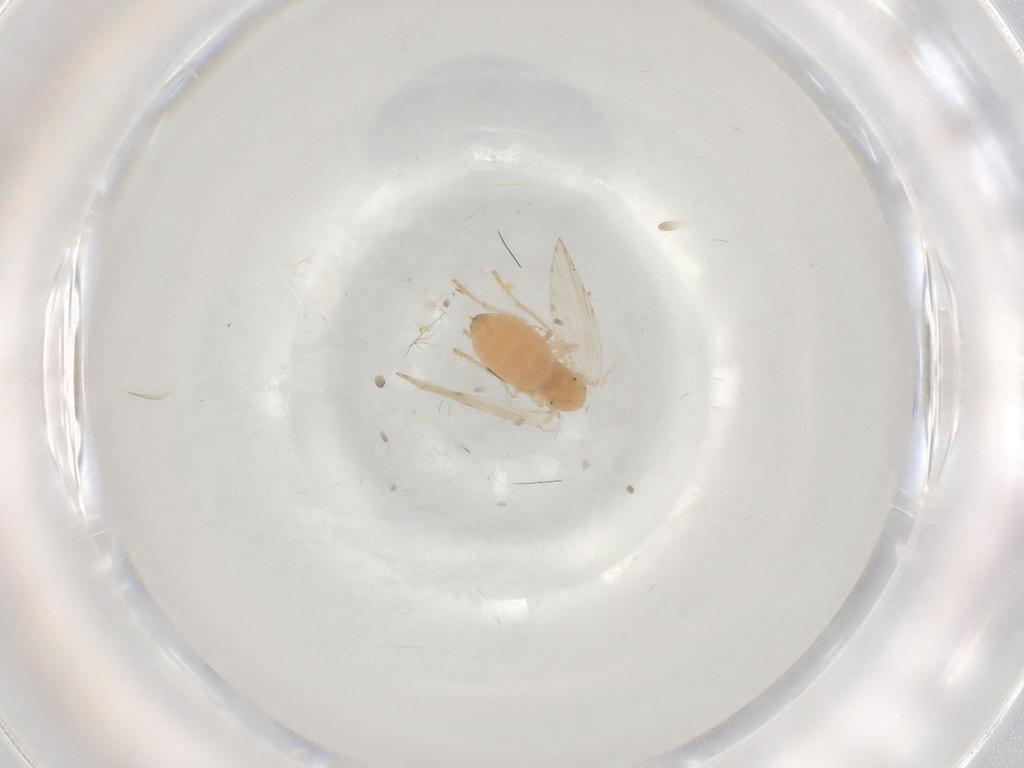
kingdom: Animalia
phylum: Arthropoda
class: Insecta
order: Diptera
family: Psychodidae
